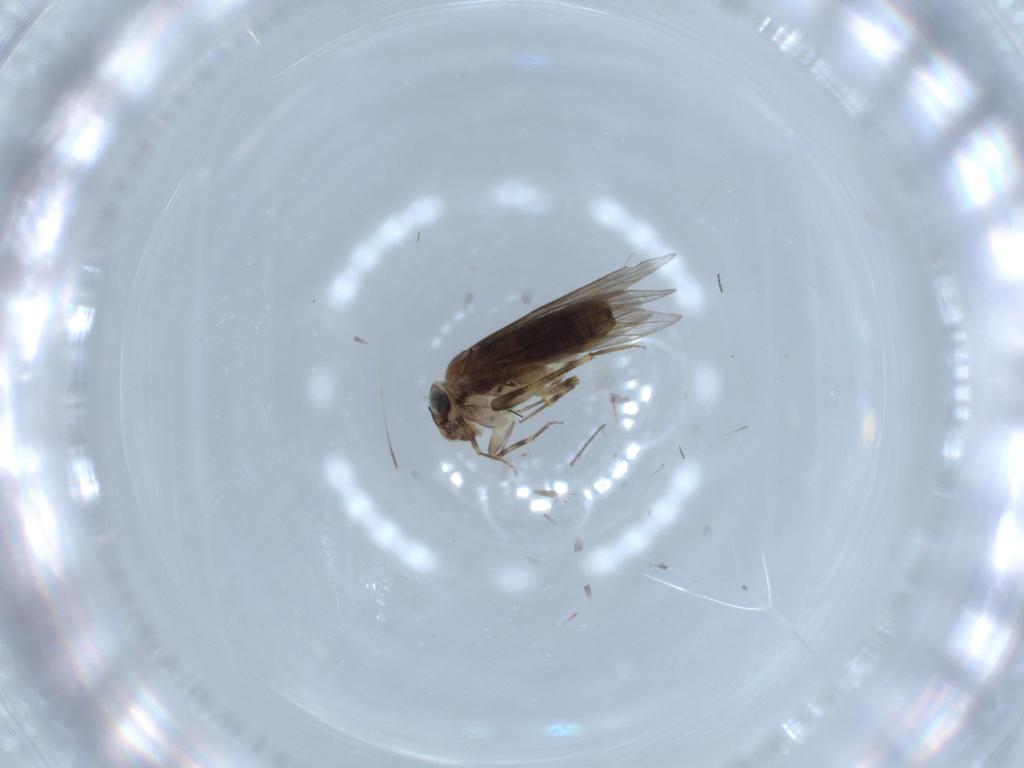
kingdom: Animalia
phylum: Arthropoda
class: Insecta
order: Psocodea
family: Lepidopsocidae
